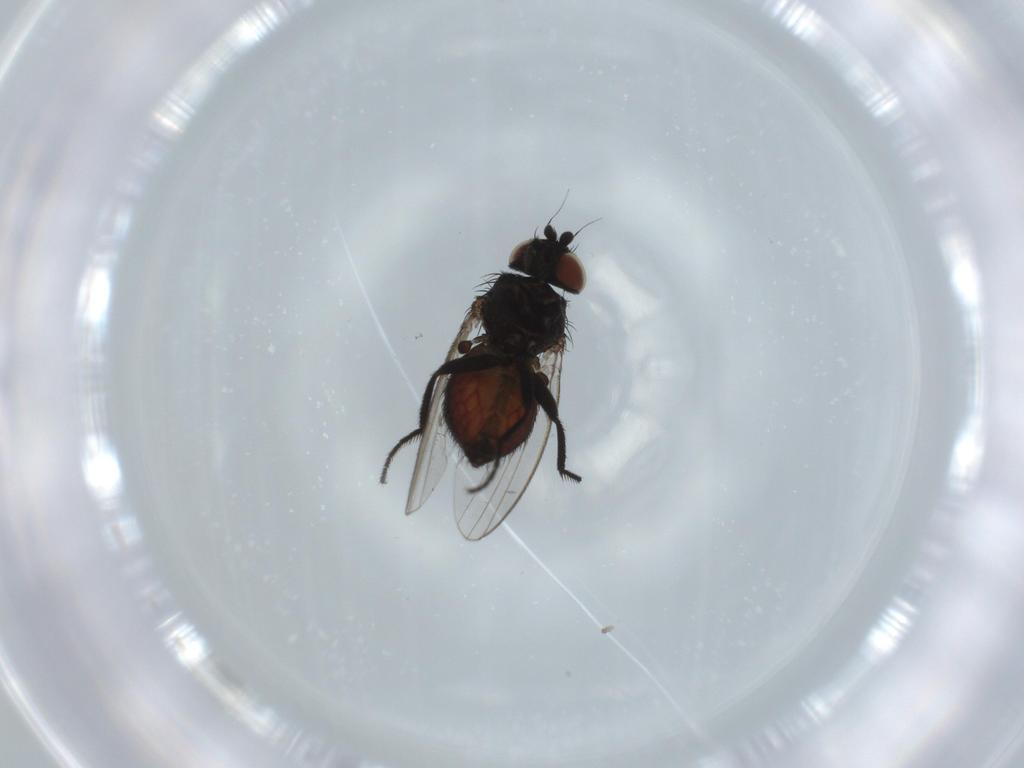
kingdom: Animalia
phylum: Arthropoda
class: Insecta
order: Diptera
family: Milichiidae
